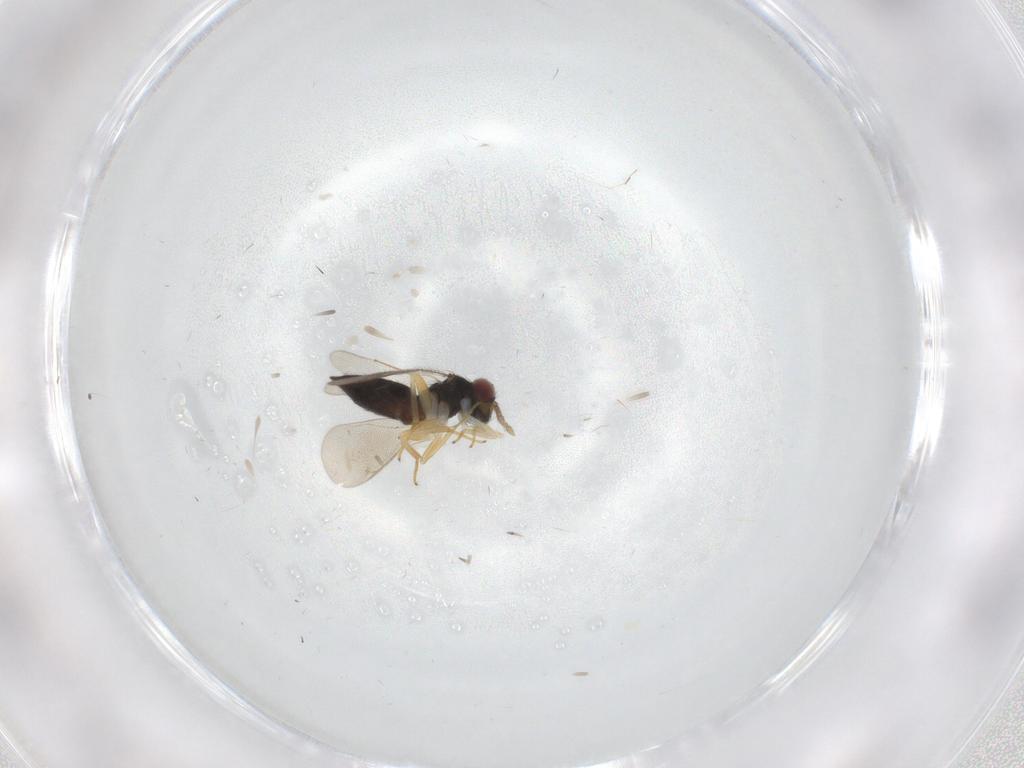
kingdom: Animalia
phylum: Arthropoda
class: Insecta
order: Hymenoptera
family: Eulophidae
